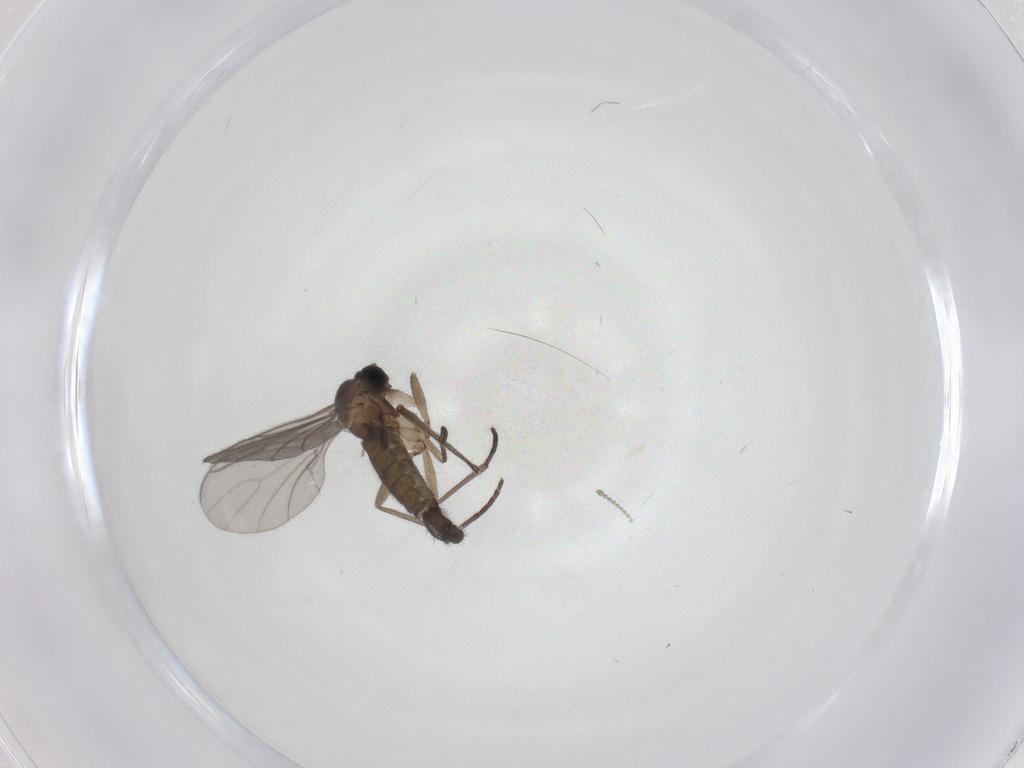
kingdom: Animalia
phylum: Arthropoda
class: Insecta
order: Diptera
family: Sciaridae
